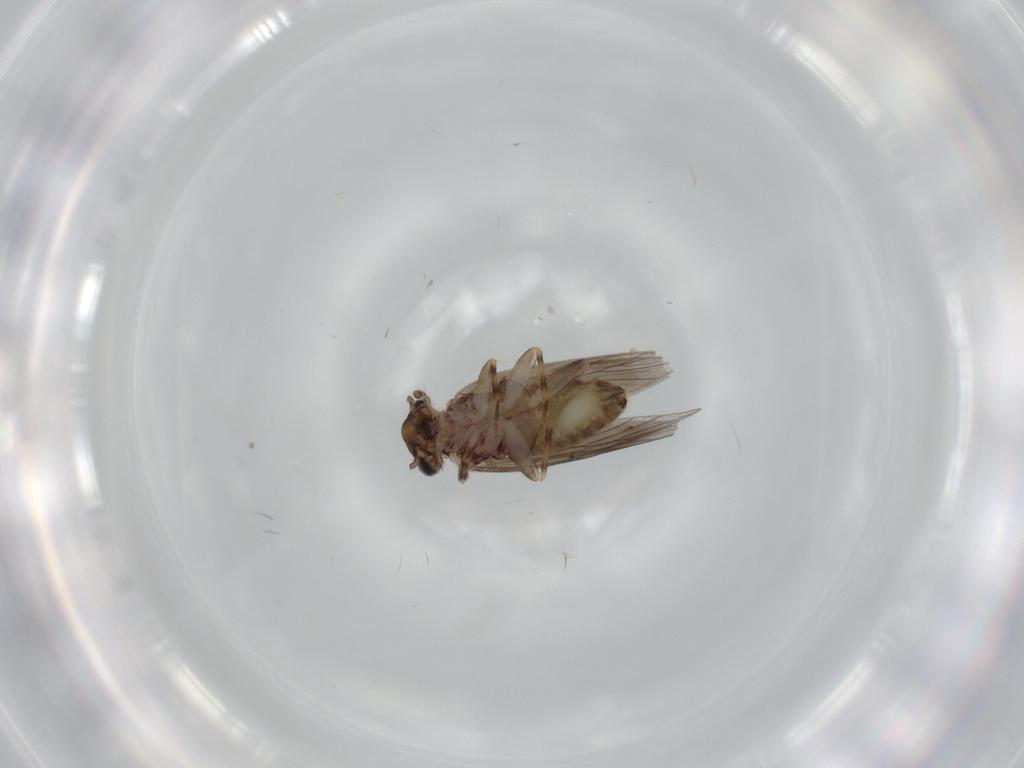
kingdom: Animalia
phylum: Arthropoda
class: Insecta
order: Psocodea
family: Lepidopsocidae
